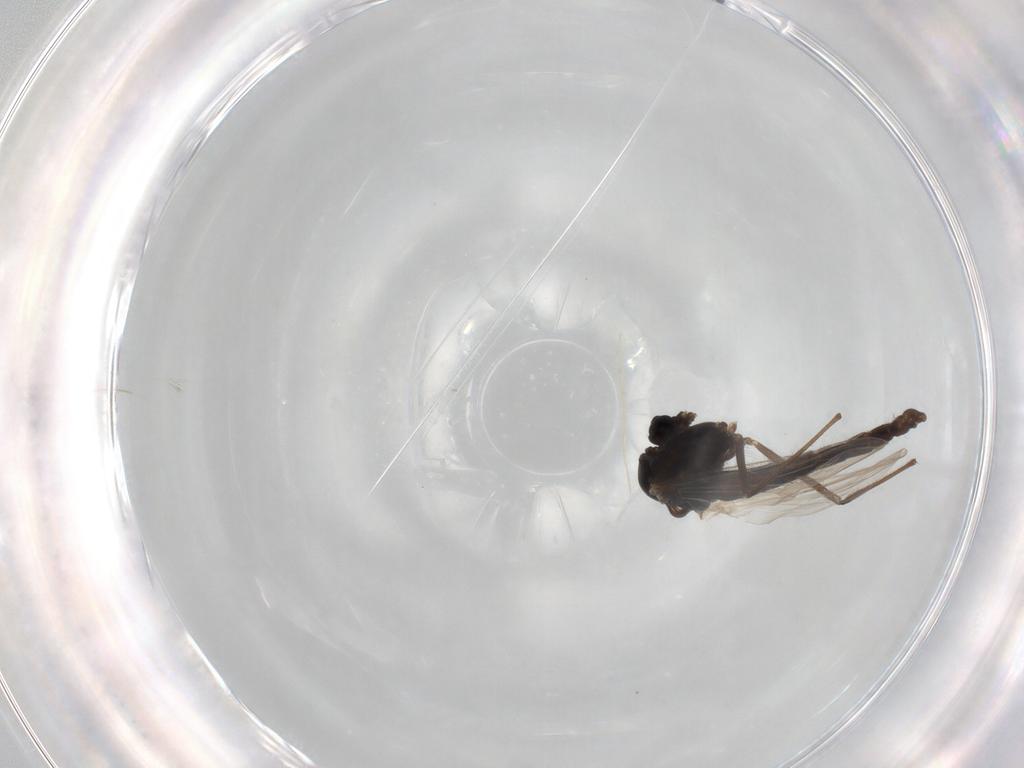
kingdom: Animalia
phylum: Arthropoda
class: Insecta
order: Diptera
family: Chironomidae
